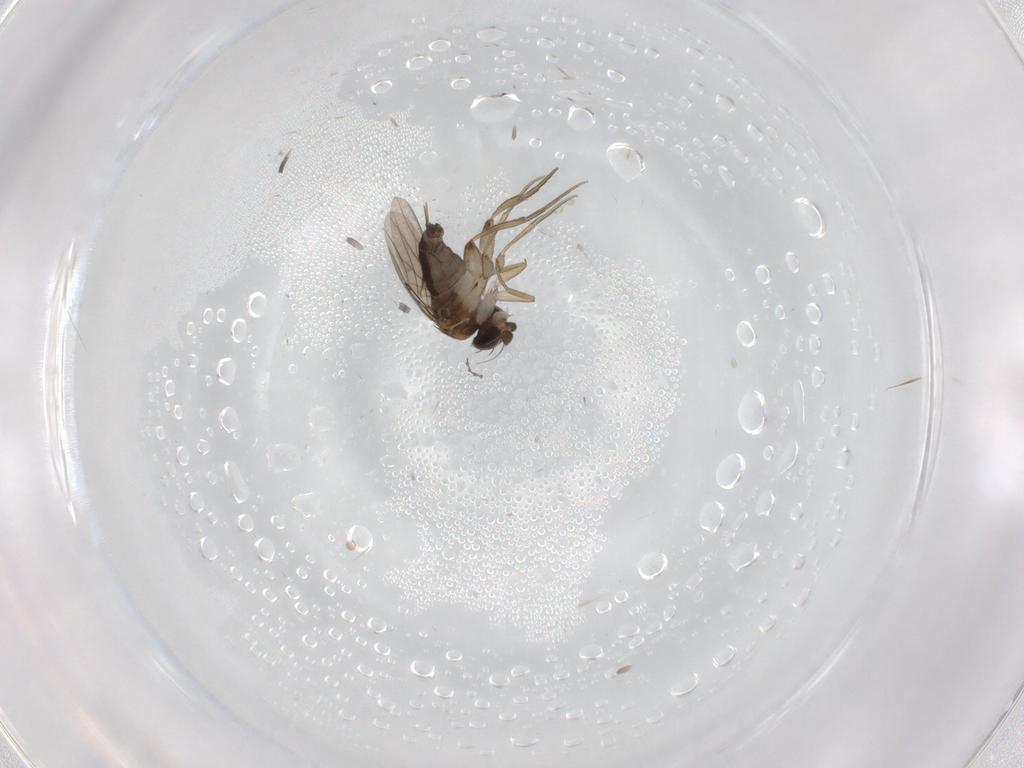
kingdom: Animalia
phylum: Arthropoda
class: Insecta
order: Diptera
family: Phoridae
